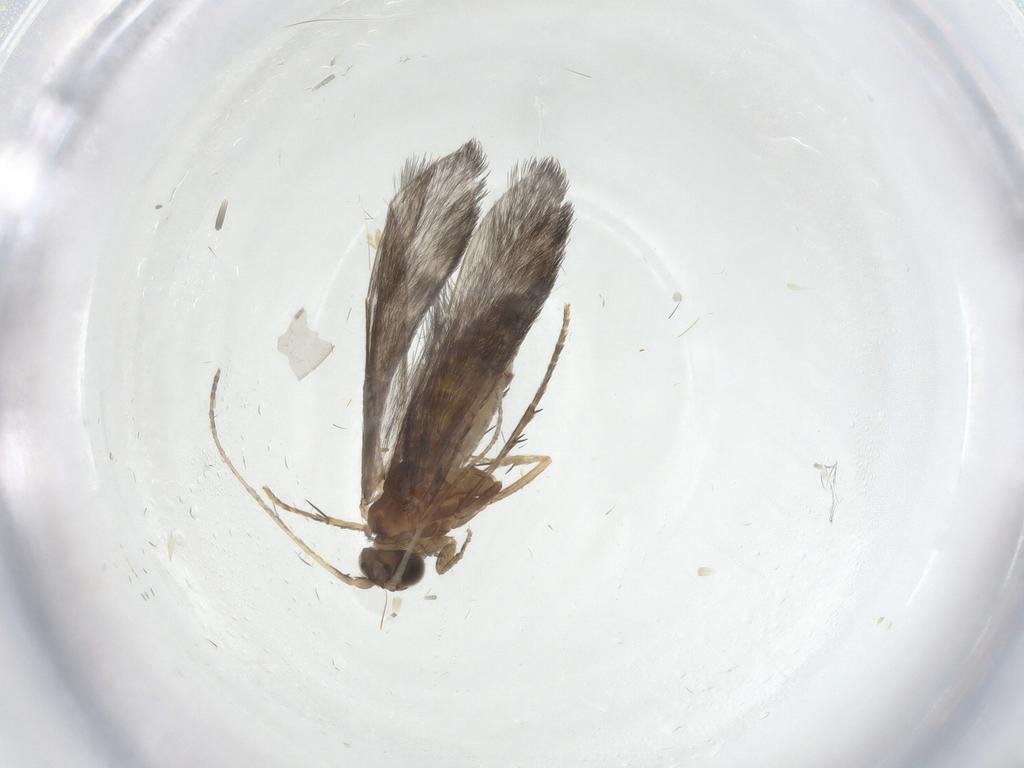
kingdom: Animalia
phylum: Arthropoda
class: Insecta
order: Trichoptera
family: Glossosomatidae
